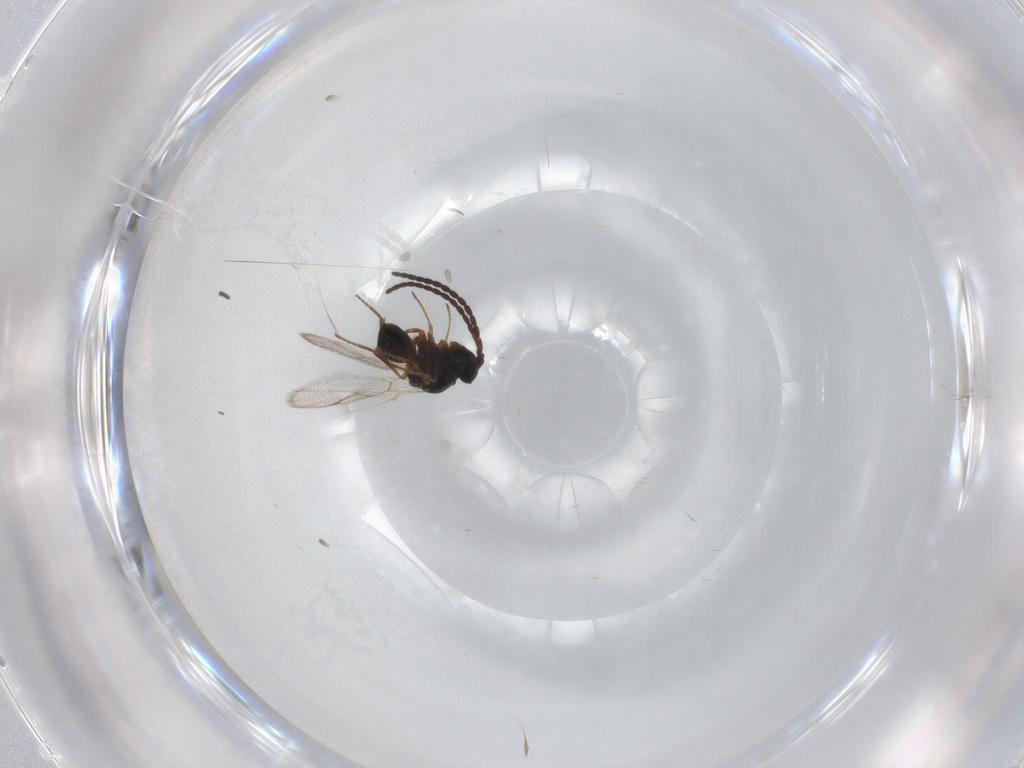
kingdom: Animalia
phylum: Arthropoda
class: Insecta
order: Hymenoptera
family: Figitidae
